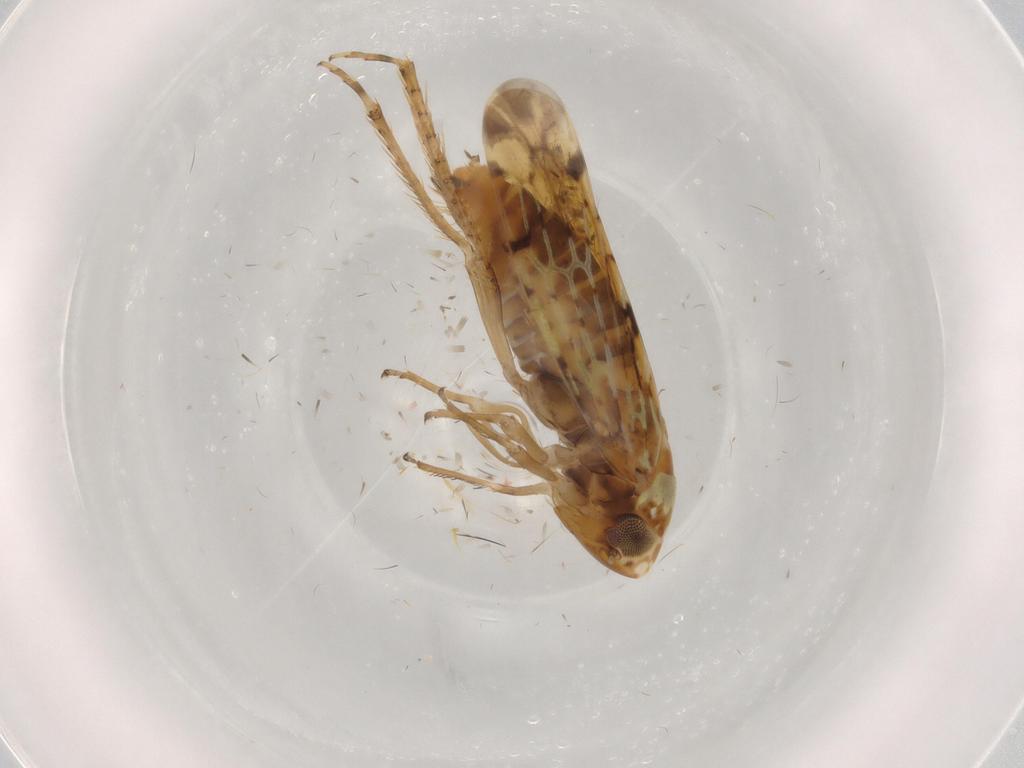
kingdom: Animalia
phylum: Arthropoda
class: Insecta
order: Hemiptera
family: Cicadellidae
